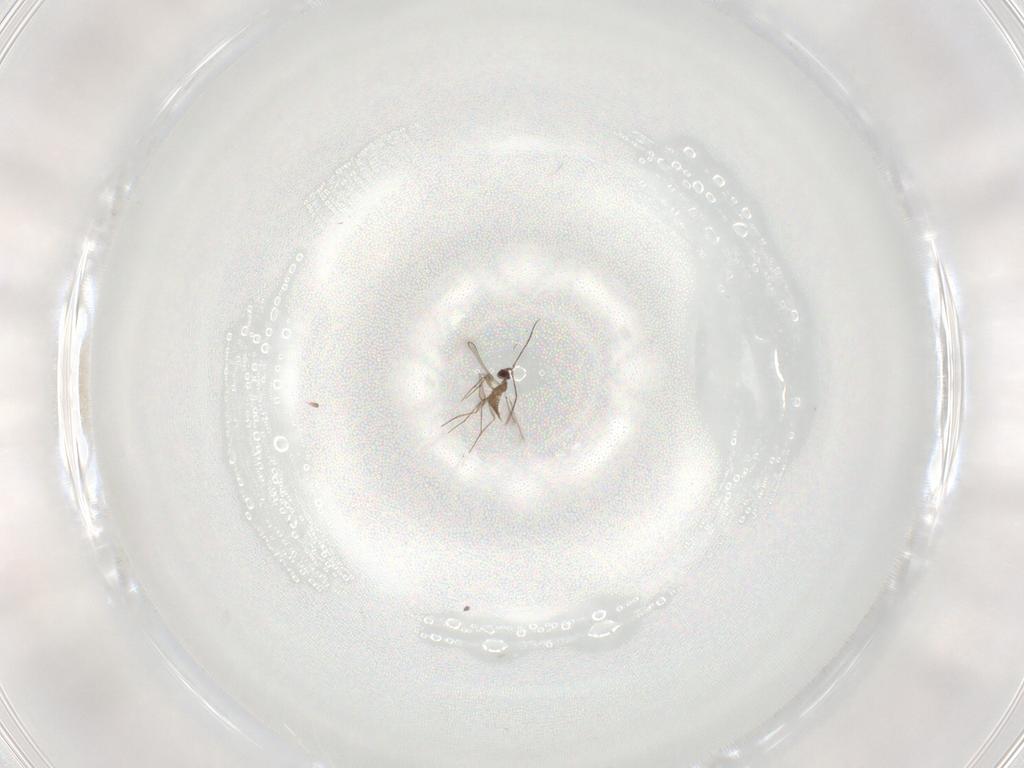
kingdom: Animalia
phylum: Arthropoda
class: Insecta
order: Hymenoptera
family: Mymaridae
